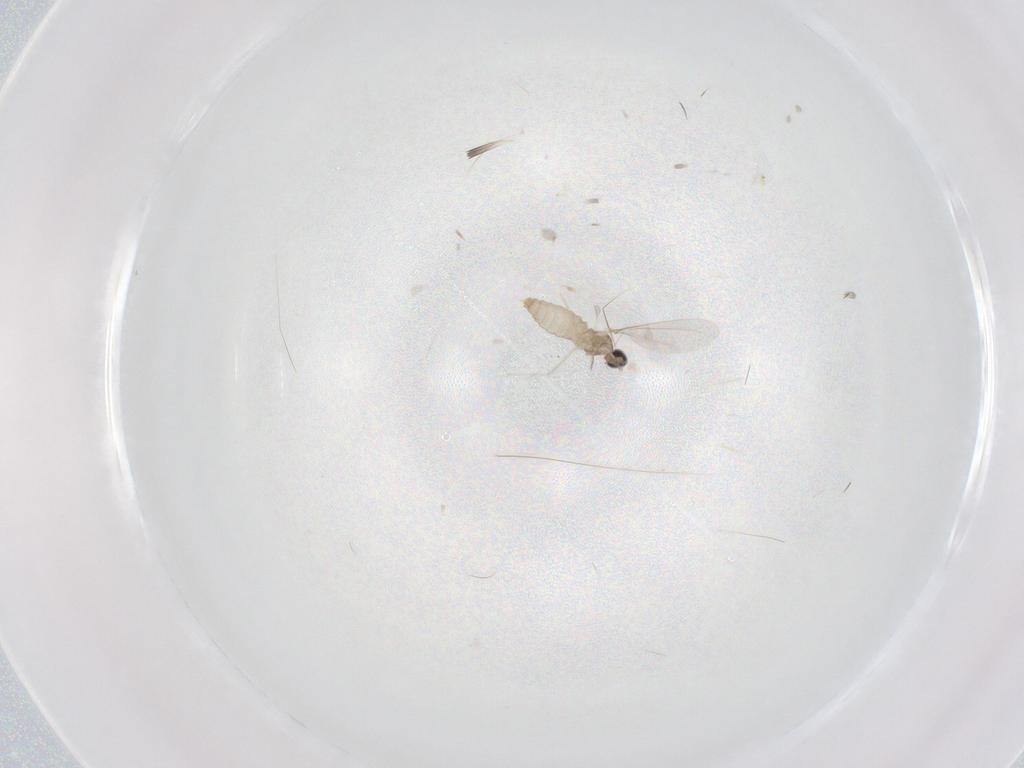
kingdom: Animalia
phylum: Arthropoda
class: Insecta
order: Diptera
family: Cecidomyiidae
